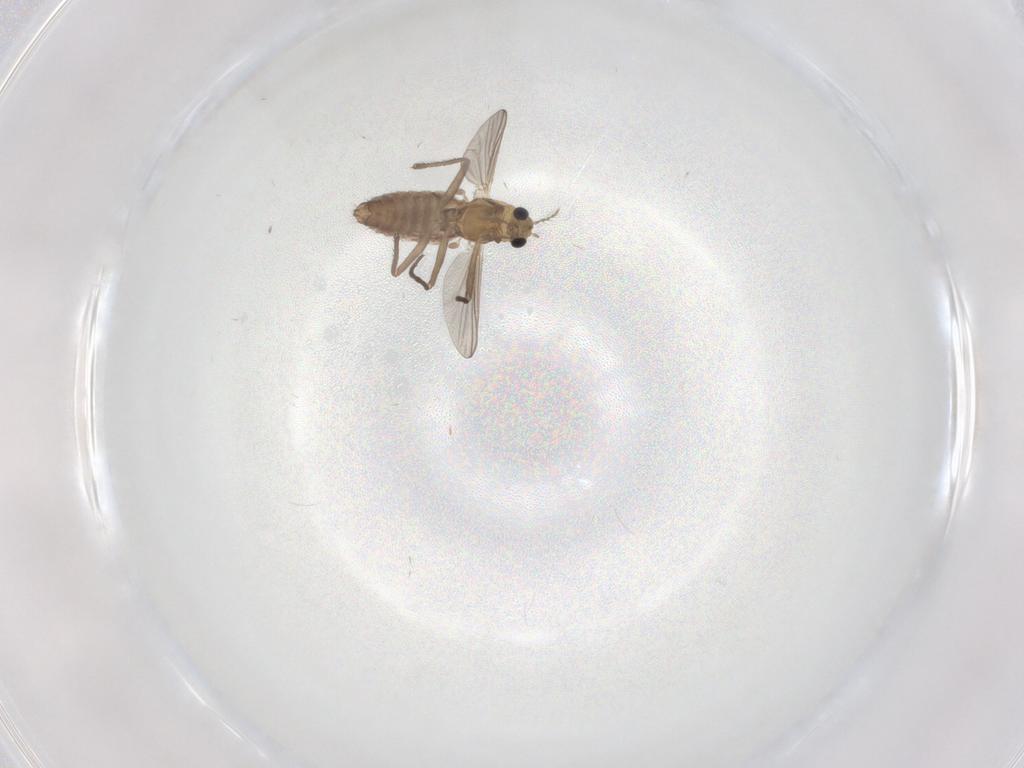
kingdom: Animalia
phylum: Arthropoda
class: Insecta
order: Diptera
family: Chironomidae
